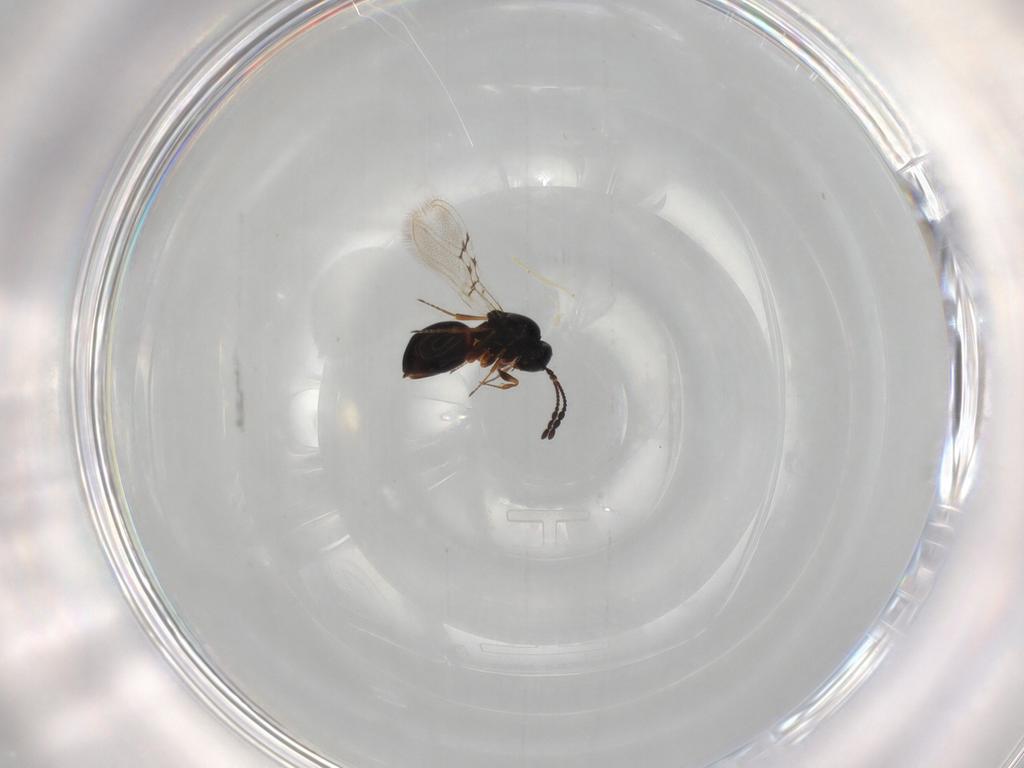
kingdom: Animalia
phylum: Arthropoda
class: Insecta
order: Hymenoptera
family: Figitidae
